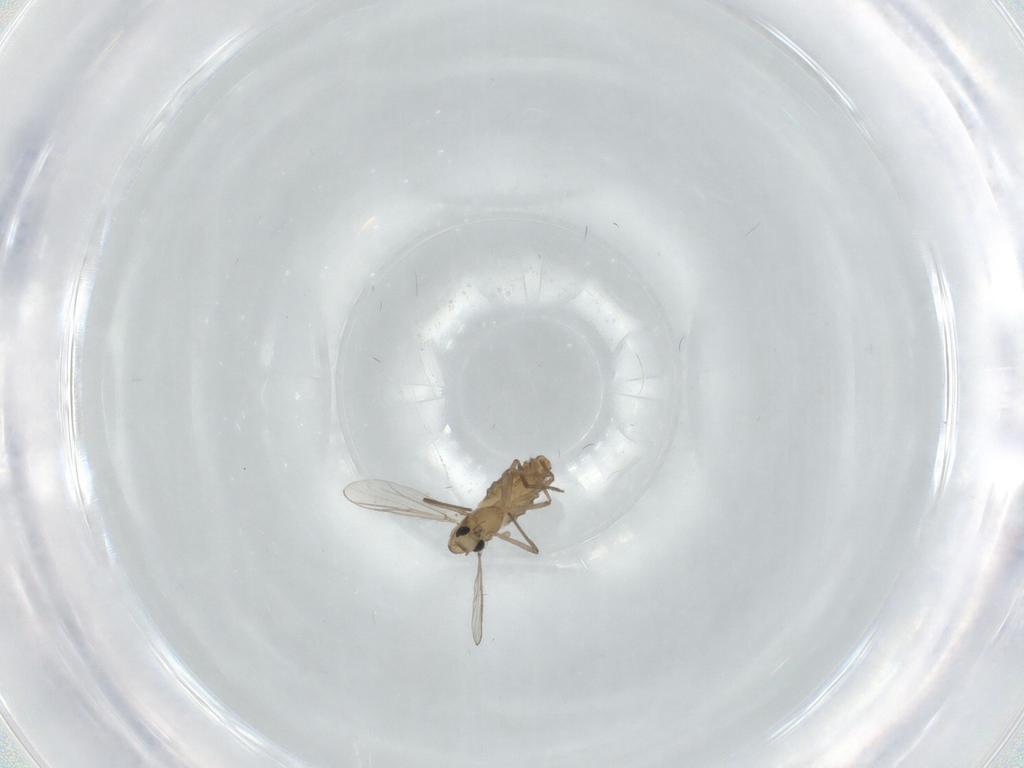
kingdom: Animalia
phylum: Arthropoda
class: Insecta
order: Diptera
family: Chironomidae
